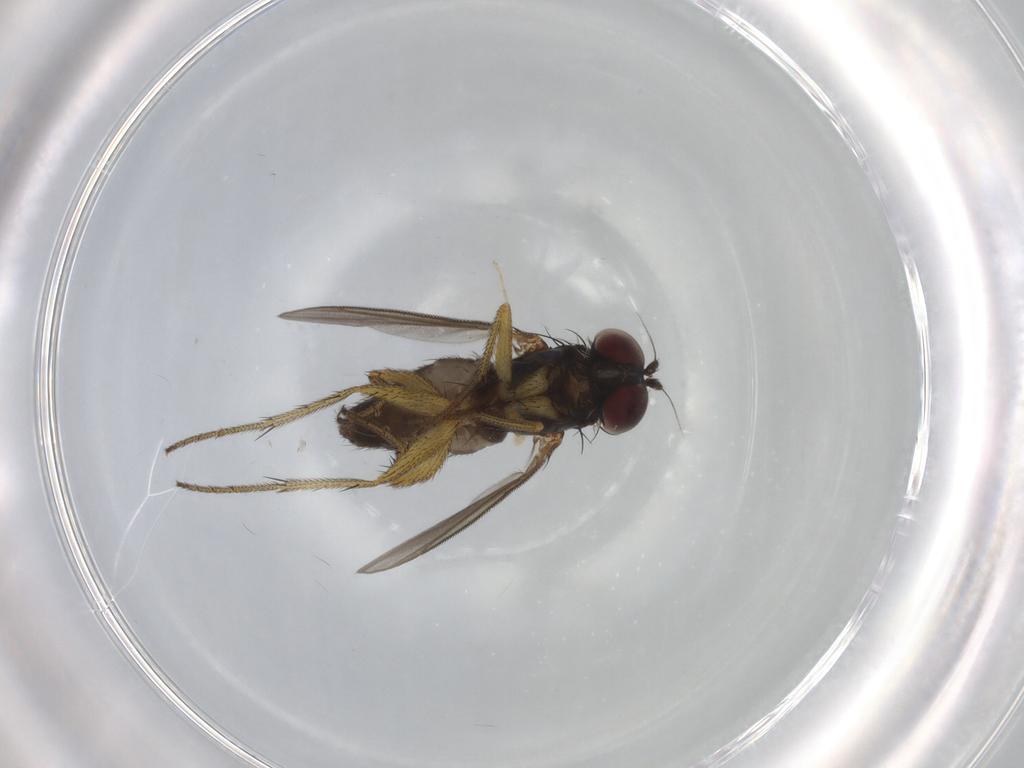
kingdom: Animalia
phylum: Arthropoda
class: Insecta
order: Diptera
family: Dolichopodidae
